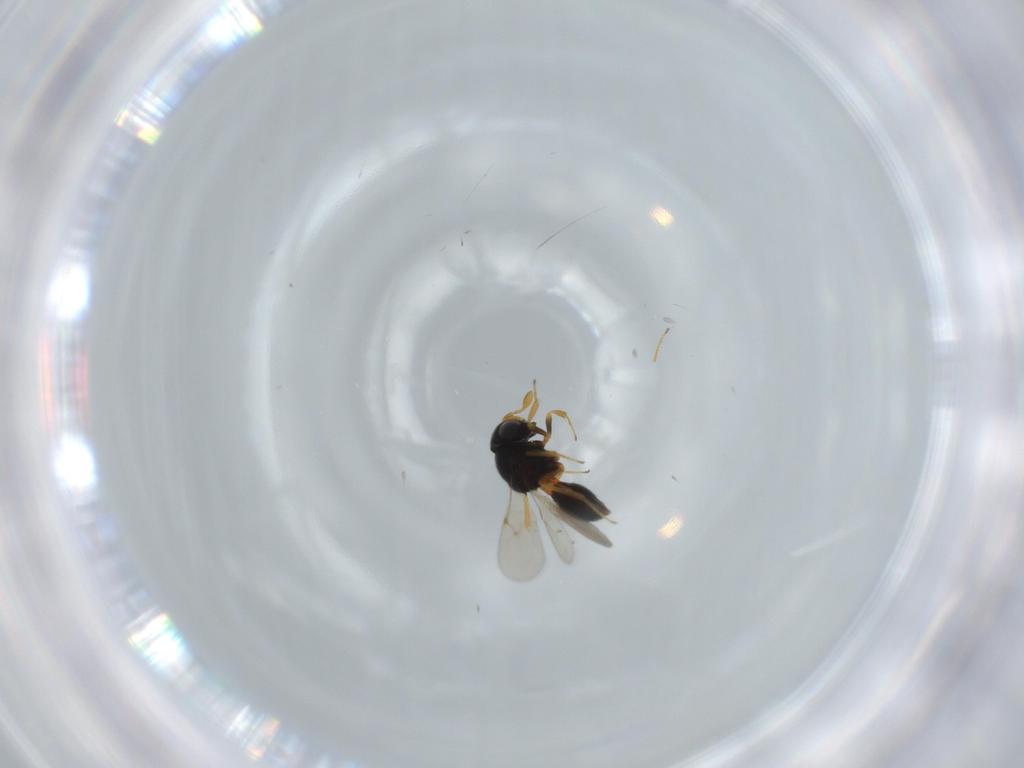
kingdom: Animalia
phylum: Arthropoda
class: Insecta
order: Hymenoptera
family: Scelionidae
